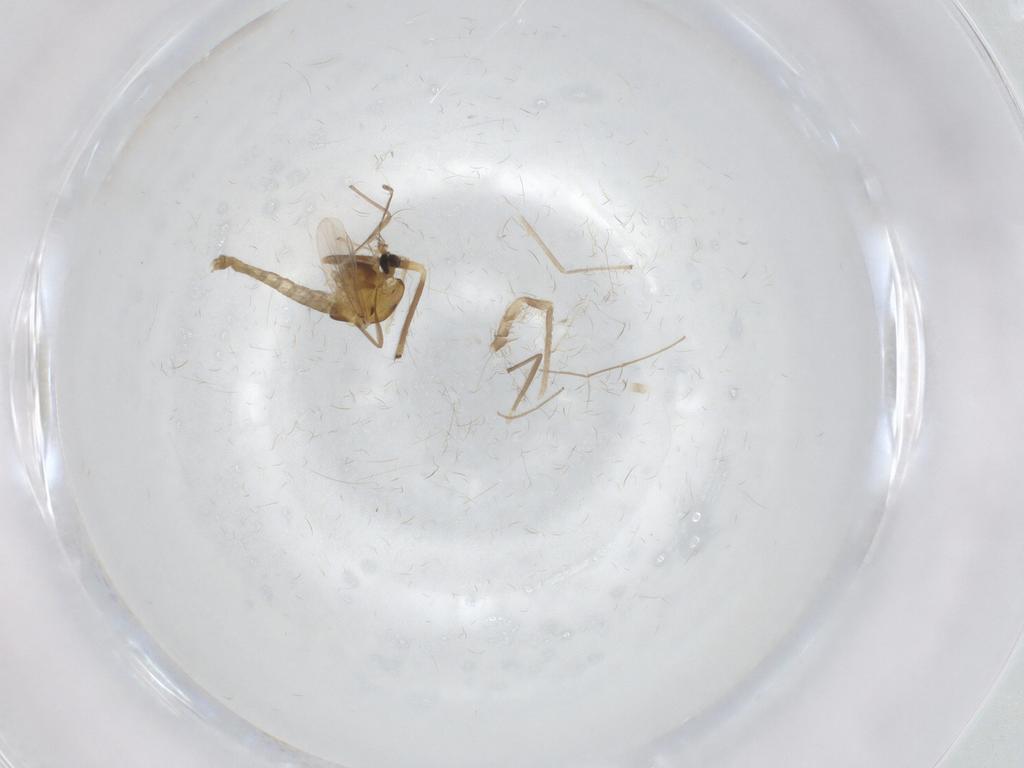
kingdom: Animalia
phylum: Arthropoda
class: Insecta
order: Diptera
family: Chironomidae
